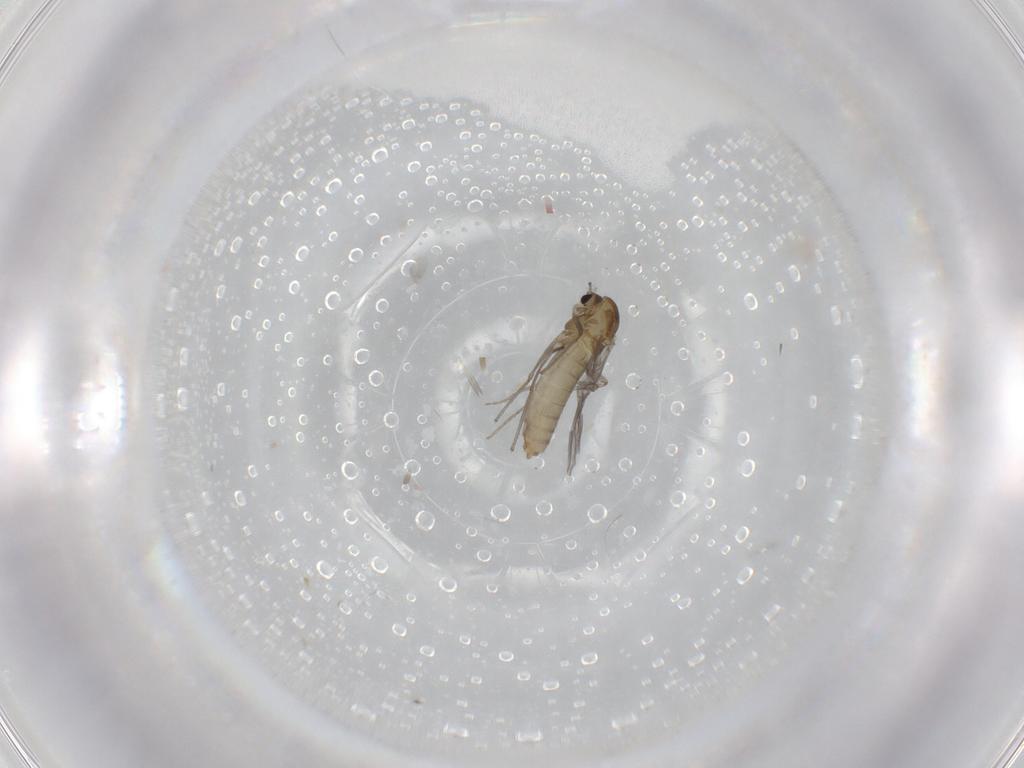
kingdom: Animalia
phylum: Arthropoda
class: Insecta
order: Diptera
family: Chironomidae
